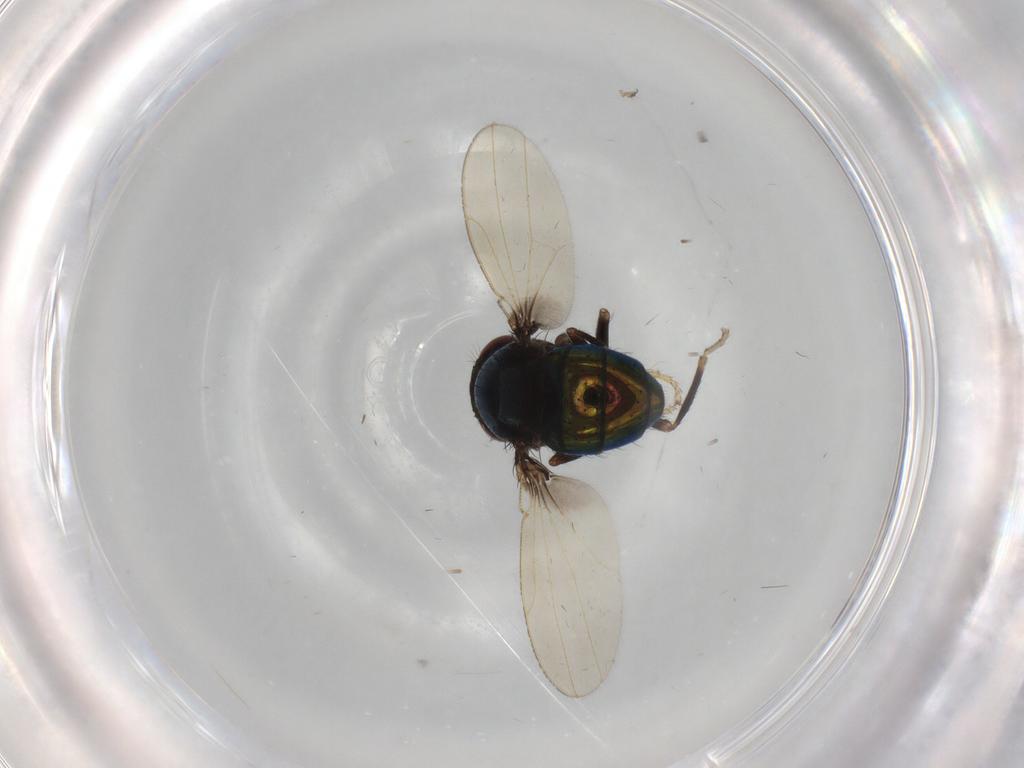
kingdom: Animalia
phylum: Arthropoda
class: Insecta
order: Diptera
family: Ephydridae
